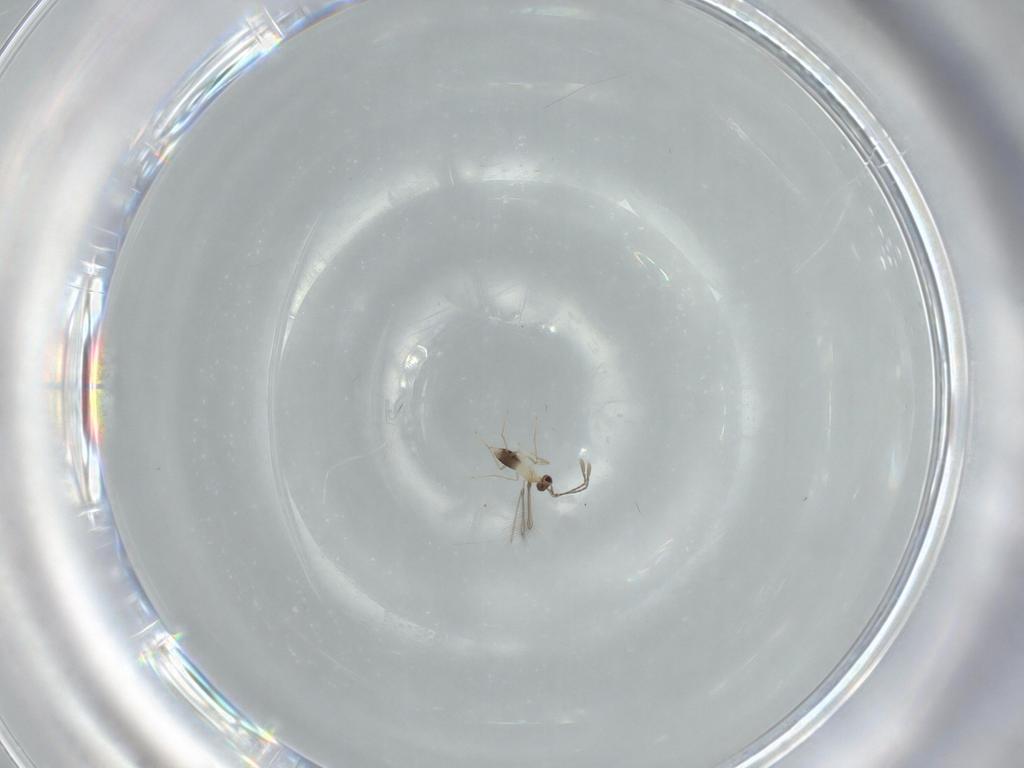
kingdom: Animalia
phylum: Arthropoda
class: Insecta
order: Hymenoptera
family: Mymaridae
